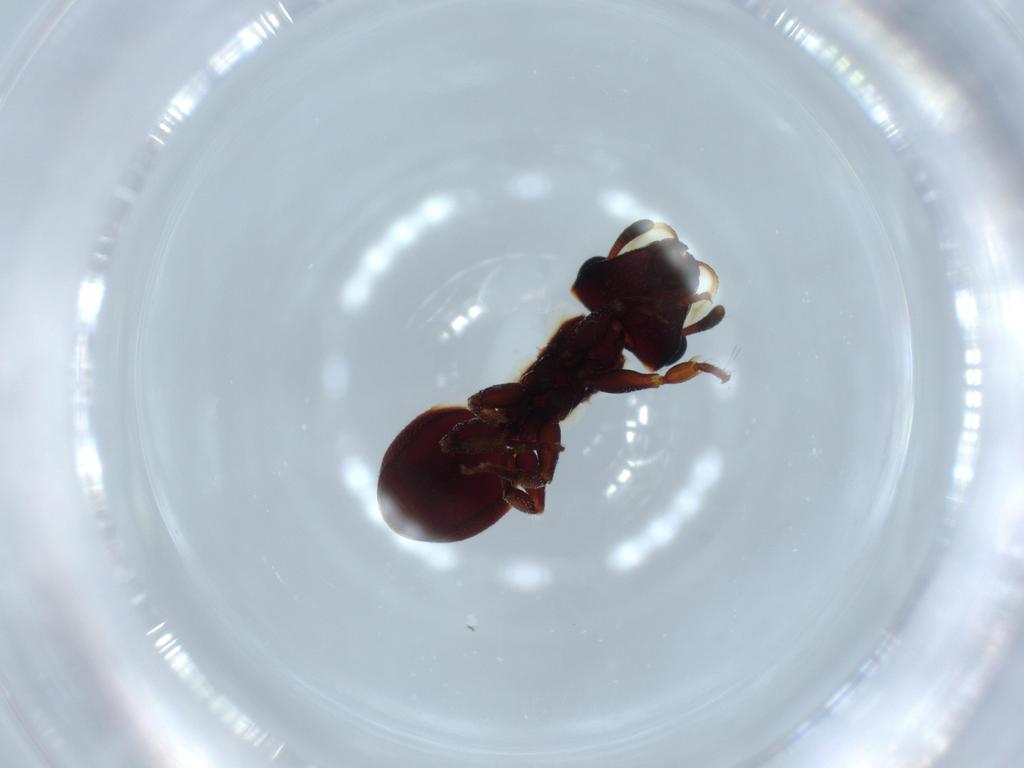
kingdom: Animalia
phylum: Arthropoda
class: Insecta
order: Hymenoptera
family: Formicidae
